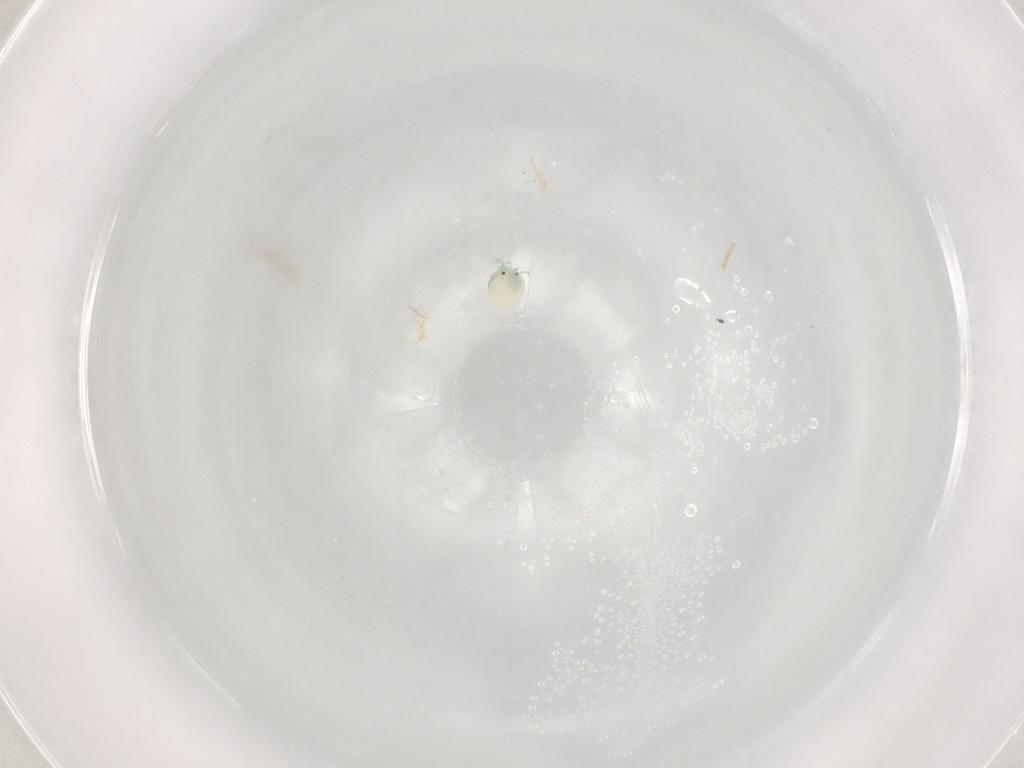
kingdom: Animalia
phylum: Arthropoda
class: Arachnida
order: Trombidiformes
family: Arrenuridae
